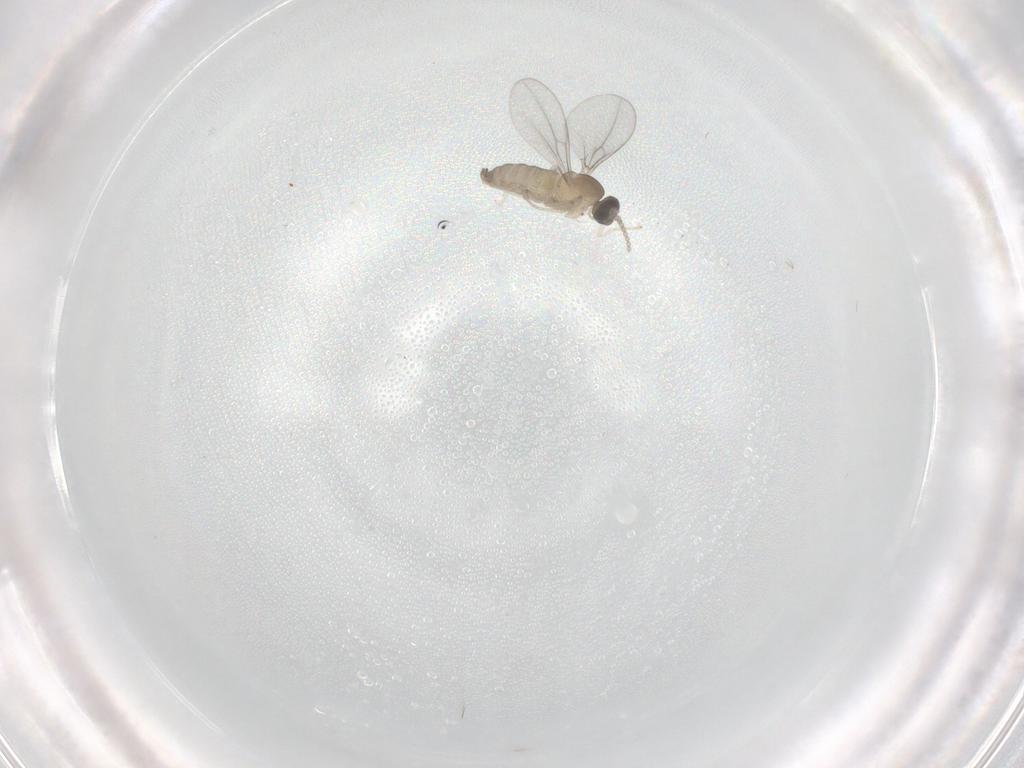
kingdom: Animalia
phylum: Arthropoda
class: Insecta
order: Diptera
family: Cecidomyiidae
